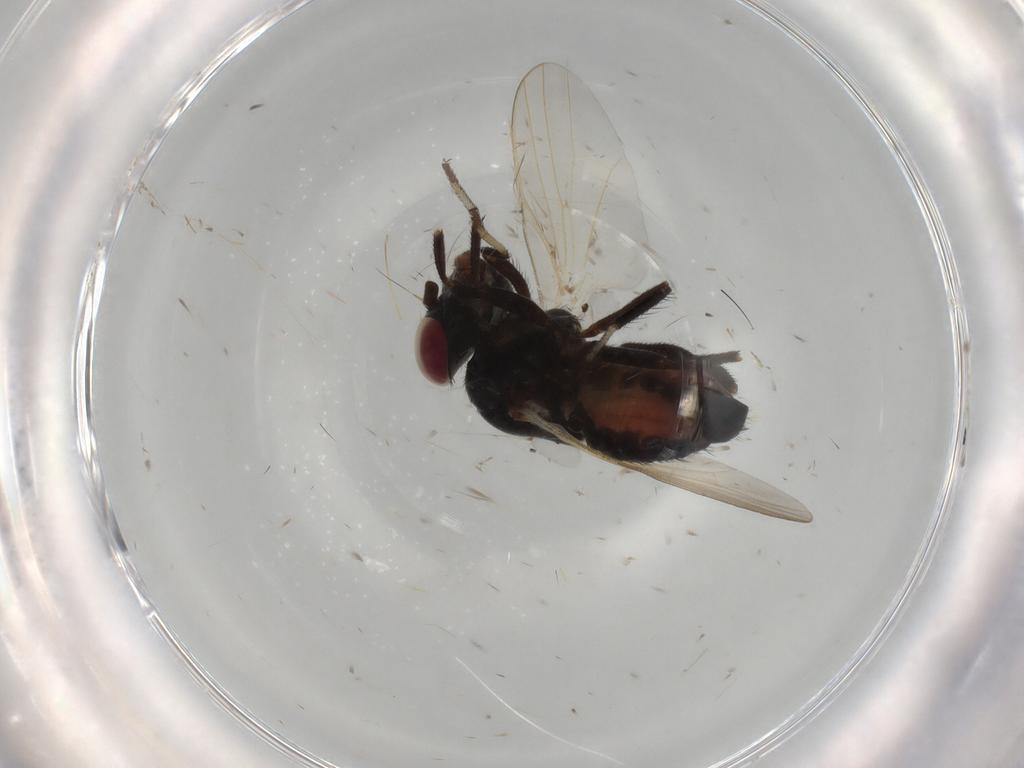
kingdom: Animalia
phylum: Arthropoda
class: Insecta
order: Diptera
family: Lonchaeidae
